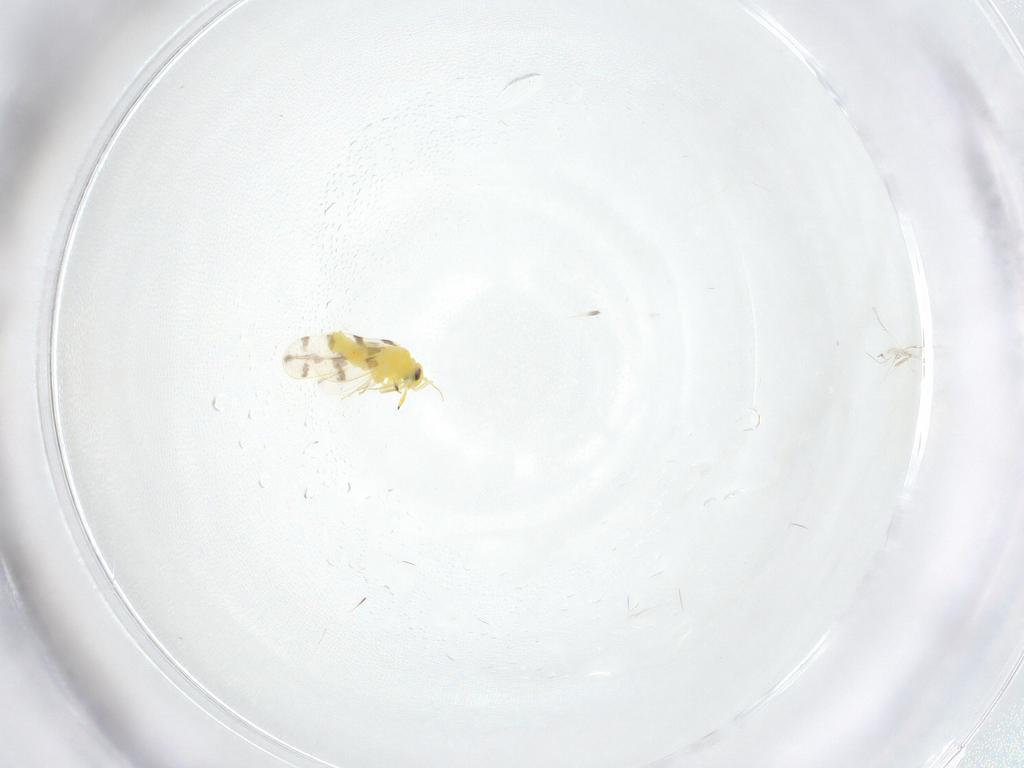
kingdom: Animalia
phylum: Arthropoda
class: Insecta
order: Hemiptera
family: Aleyrodidae
